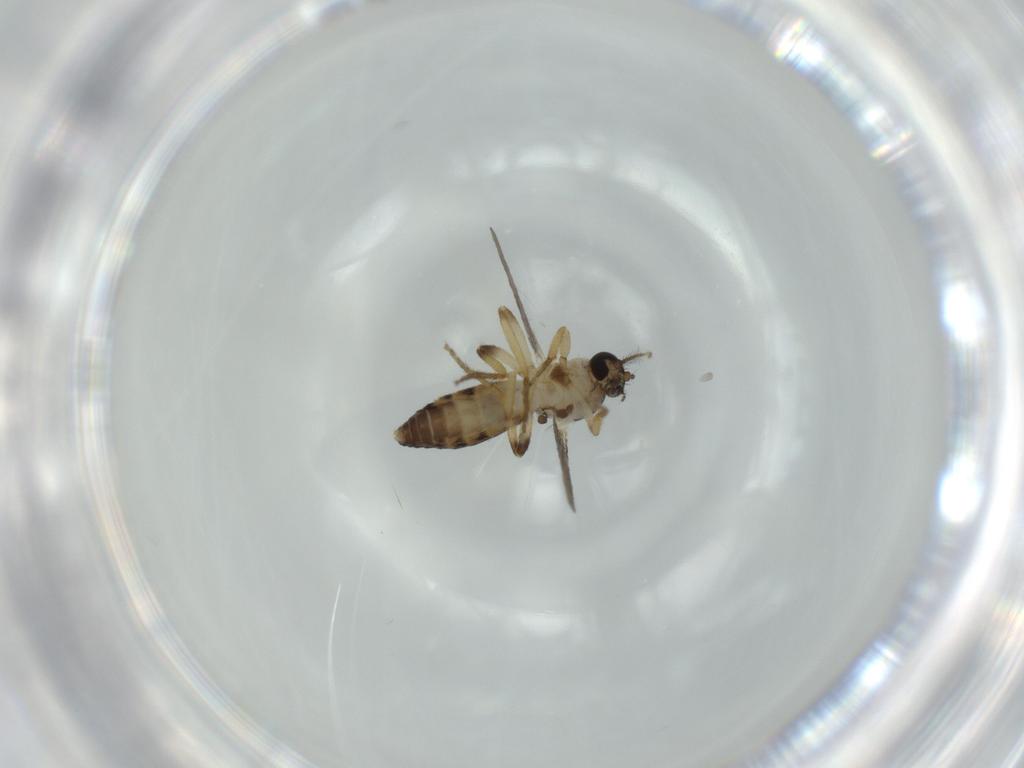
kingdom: Animalia
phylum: Arthropoda
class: Insecta
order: Diptera
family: Ceratopogonidae
